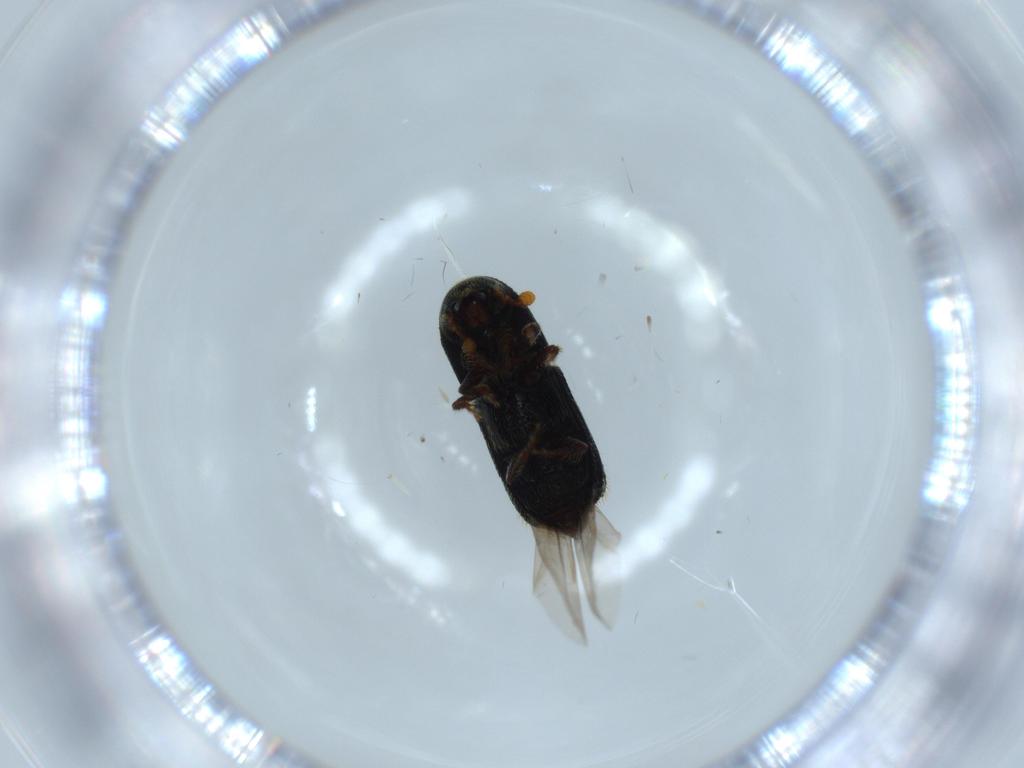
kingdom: Animalia
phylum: Arthropoda
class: Insecta
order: Coleoptera
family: Curculionidae
